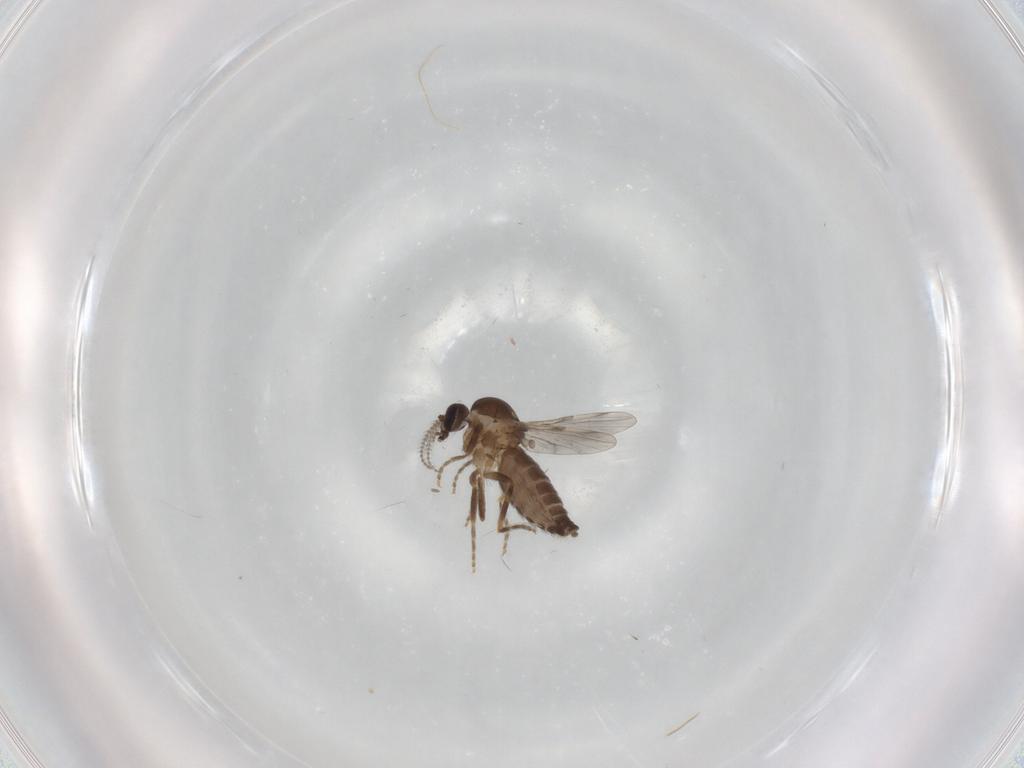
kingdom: Animalia
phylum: Arthropoda
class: Insecta
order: Diptera
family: Ceratopogonidae
